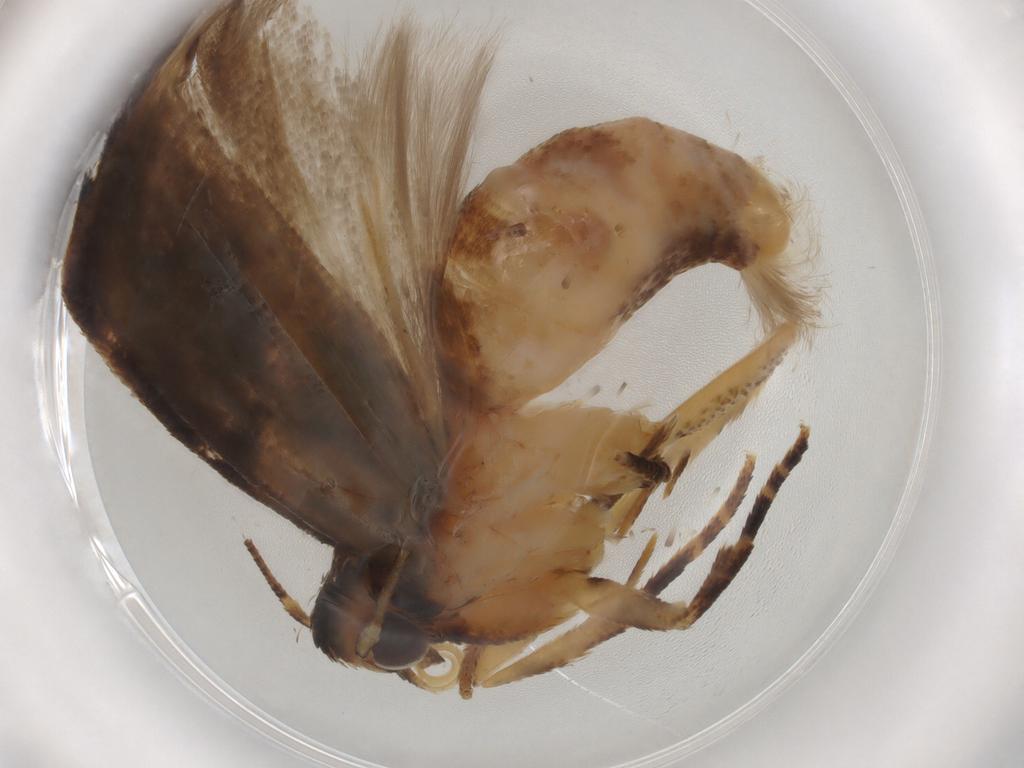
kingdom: Animalia
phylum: Arthropoda
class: Insecta
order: Lepidoptera
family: Gelechiidae
